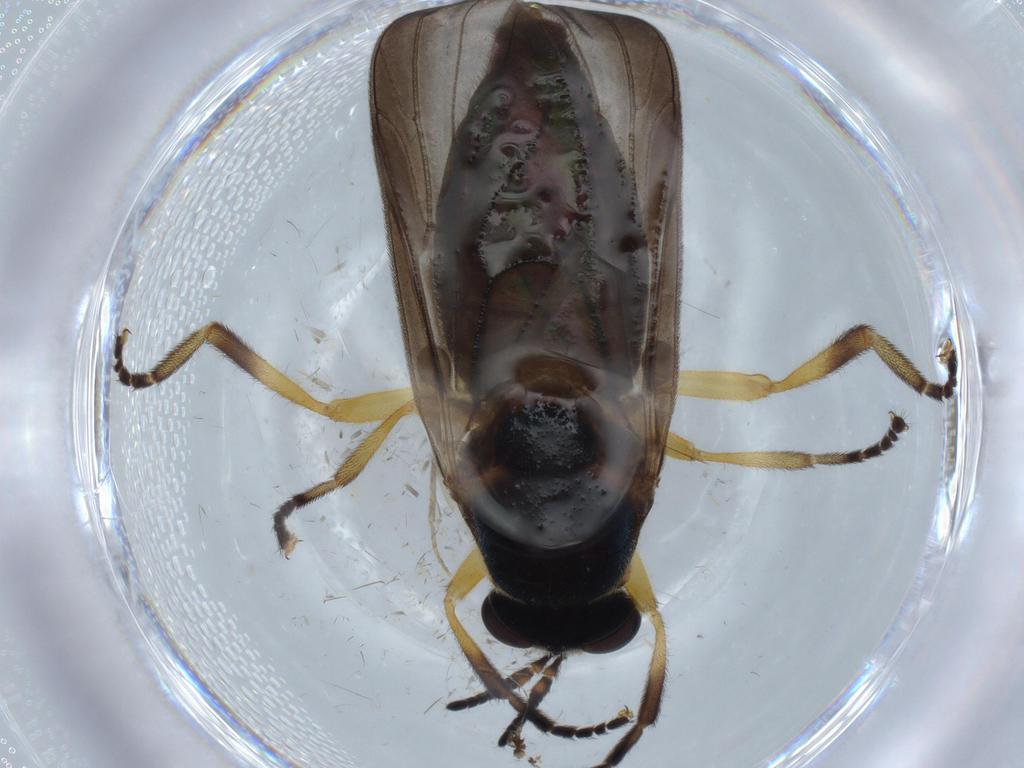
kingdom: Animalia
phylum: Arthropoda
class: Insecta
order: Diptera
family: Stratiomyidae
